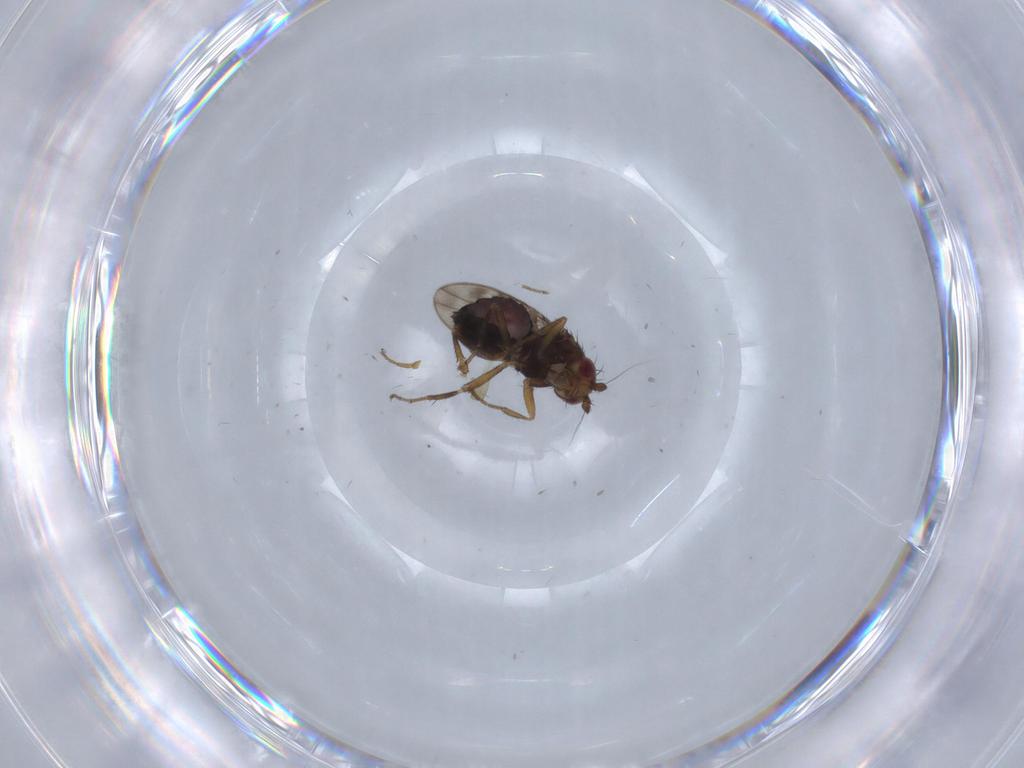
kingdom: Animalia
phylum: Arthropoda
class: Insecta
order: Diptera
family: Sphaeroceridae
